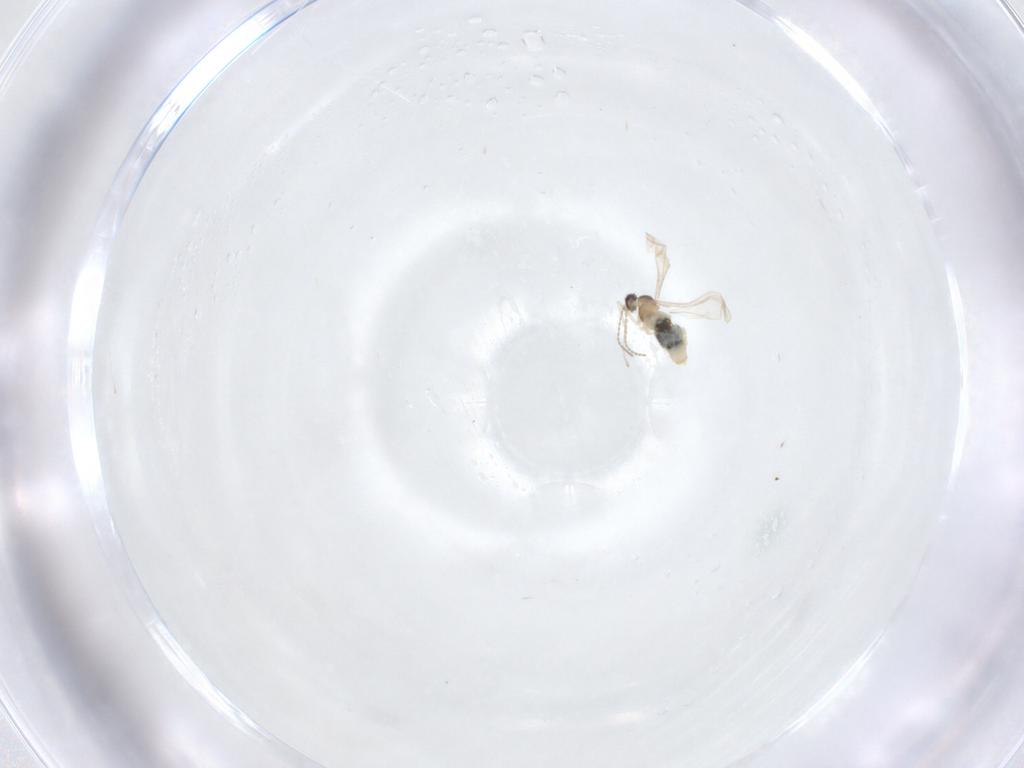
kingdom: Animalia
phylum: Arthropoda
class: Insecta
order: Diptera
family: Cecidomyiidae
